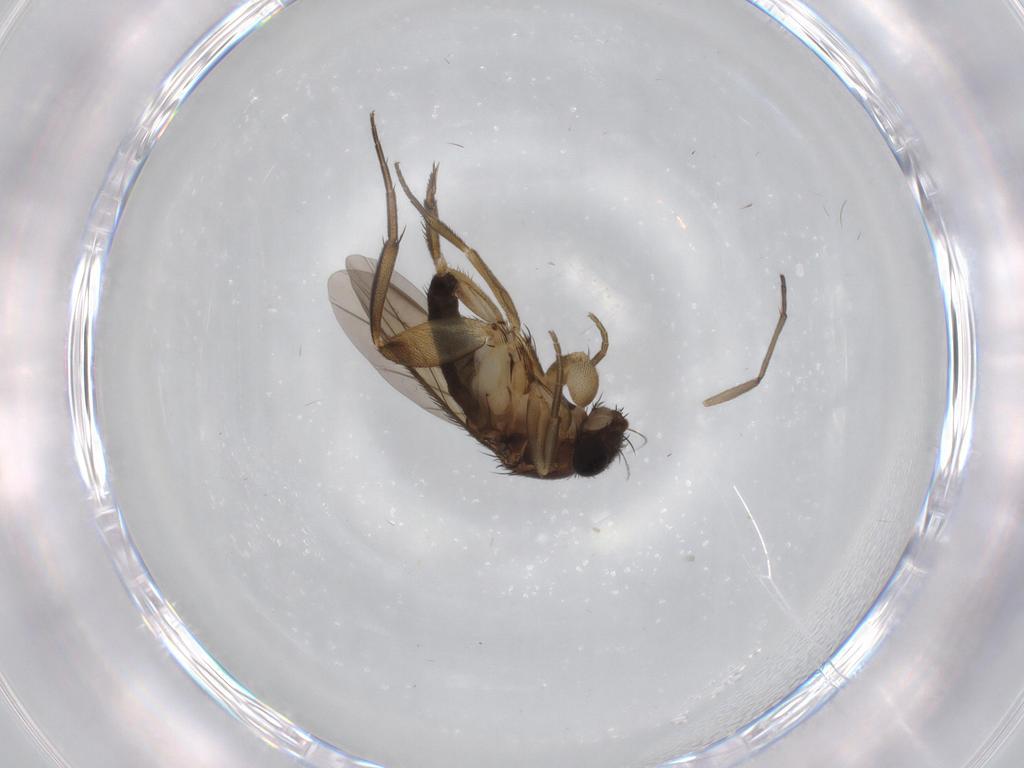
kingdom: Animalia
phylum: Arthropoda
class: Insecta
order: Diptera
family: Phoridae
